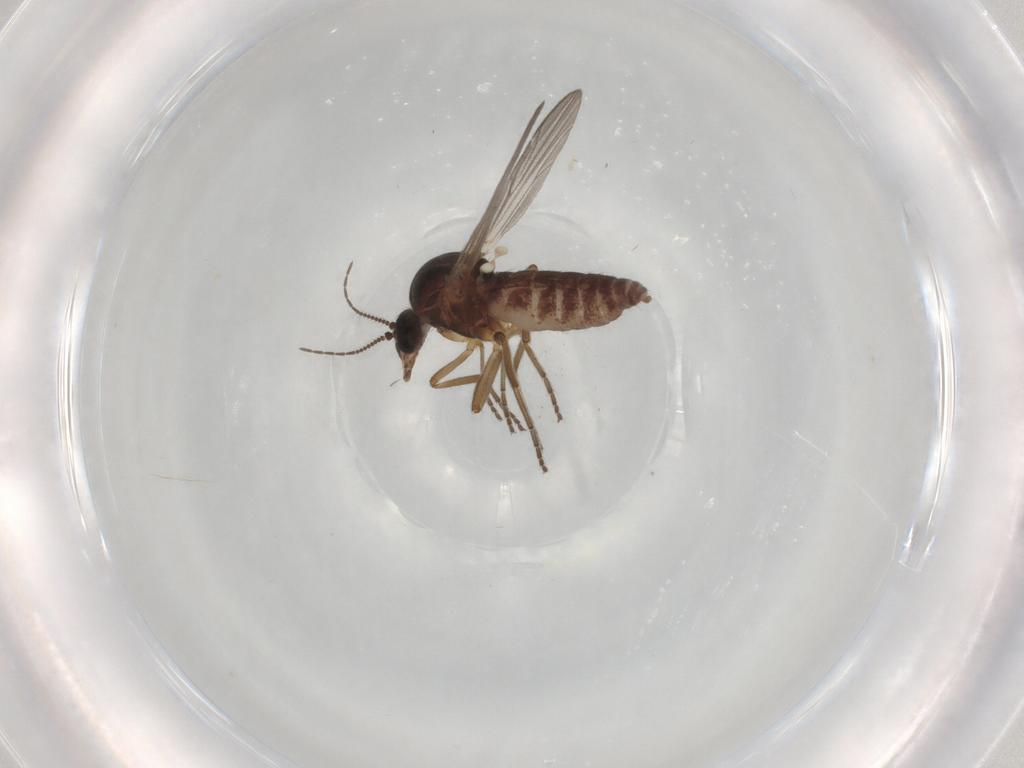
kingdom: Animalia
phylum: Arthropoda
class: Insecta
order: Diptera
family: Ceratopogonidae
